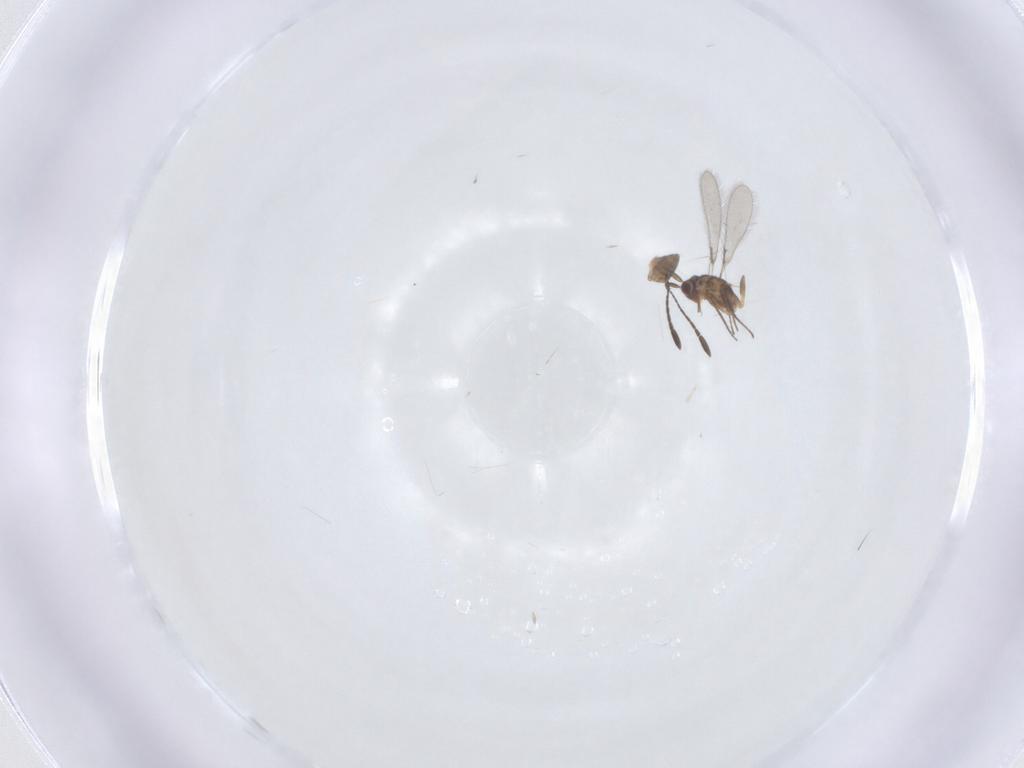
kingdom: Animalia
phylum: Arthropoda
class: Insecta
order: Hymenoptera
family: Mymaridae
